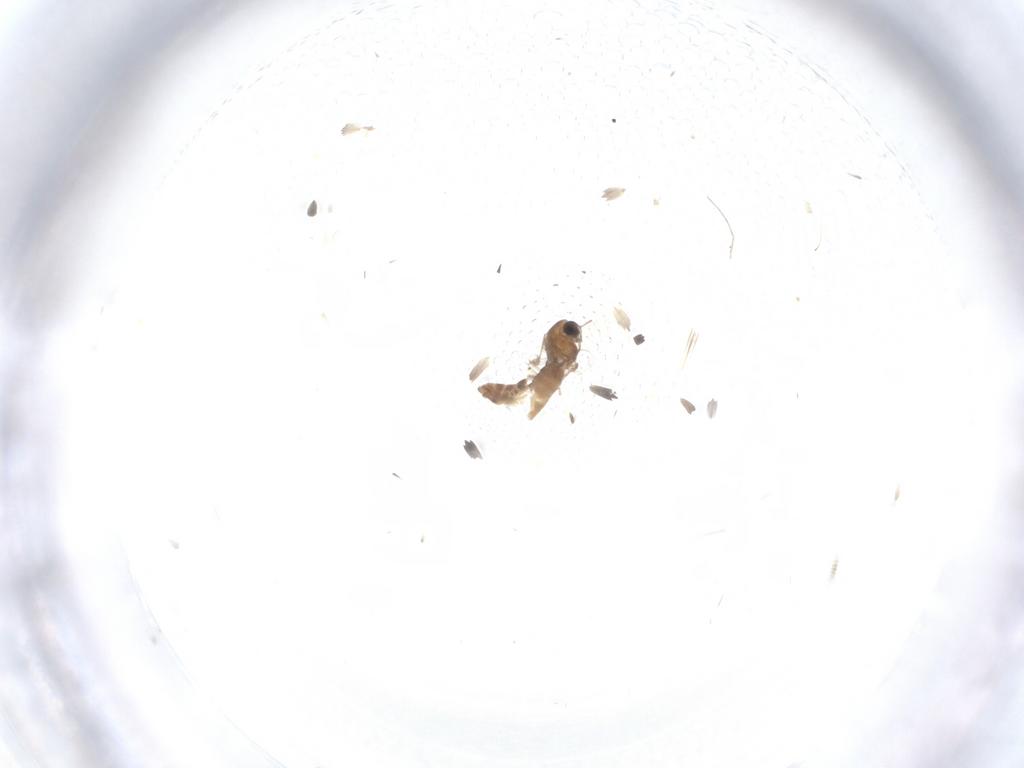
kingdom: Animalia
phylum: Arthropoda
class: Insecta
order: Diptera
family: Chironomidae
